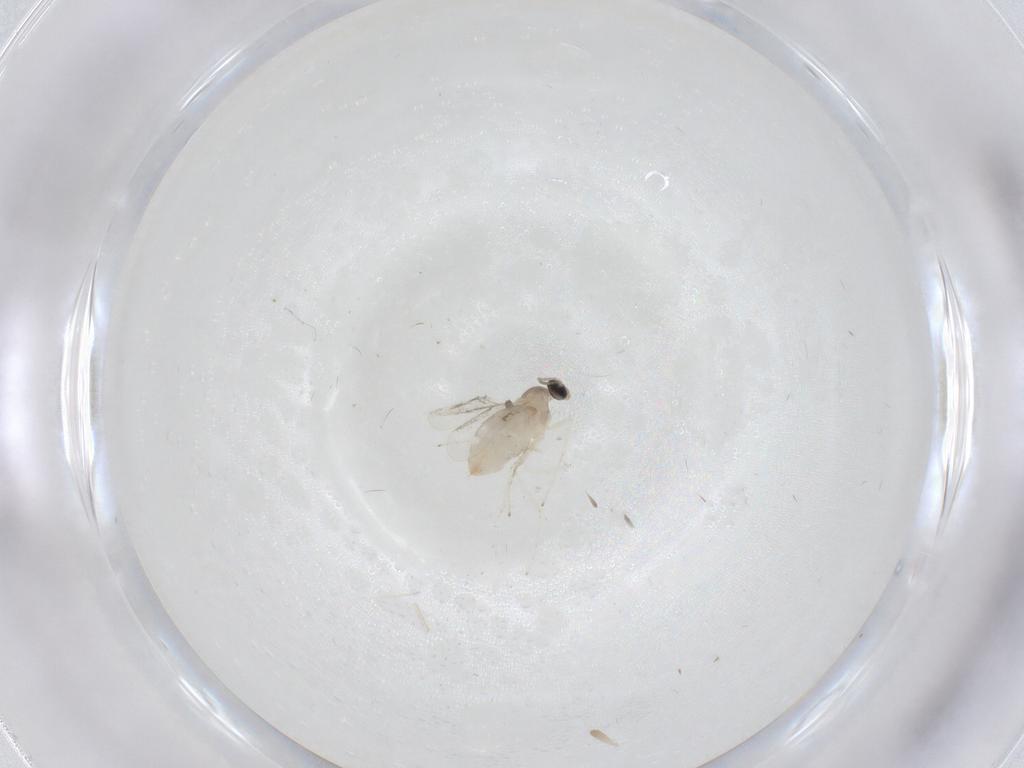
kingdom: Animalia
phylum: Arthropoda
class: Insecta
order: Diptera
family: Cecidomyiidae
